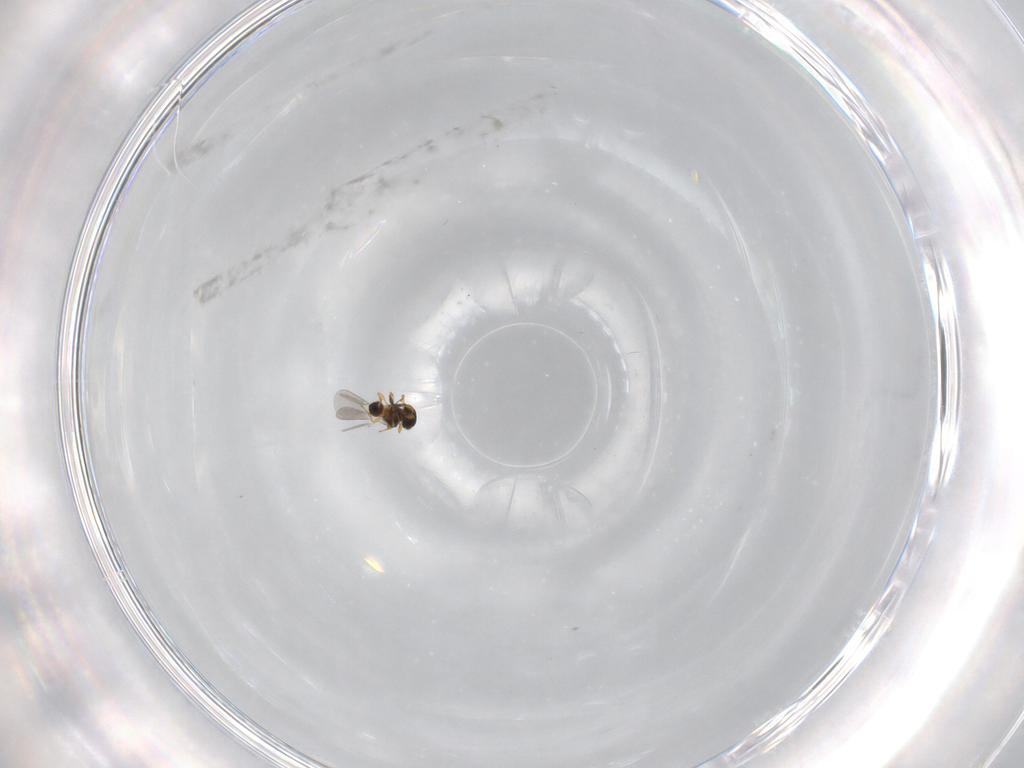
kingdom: Animalia
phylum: Arthropoda
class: Insecta
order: Hymenoptera
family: Platygastridae
